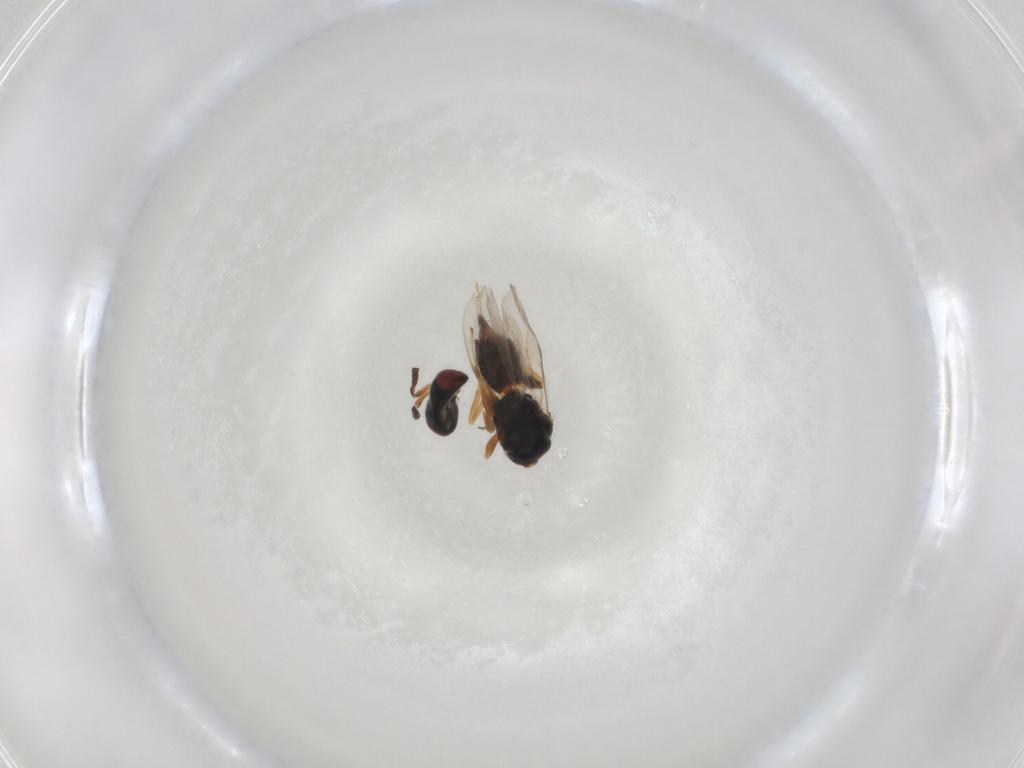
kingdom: Animalia
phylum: Arthropoda
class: Insecta
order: Hymenoptera
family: Pteromalidae
